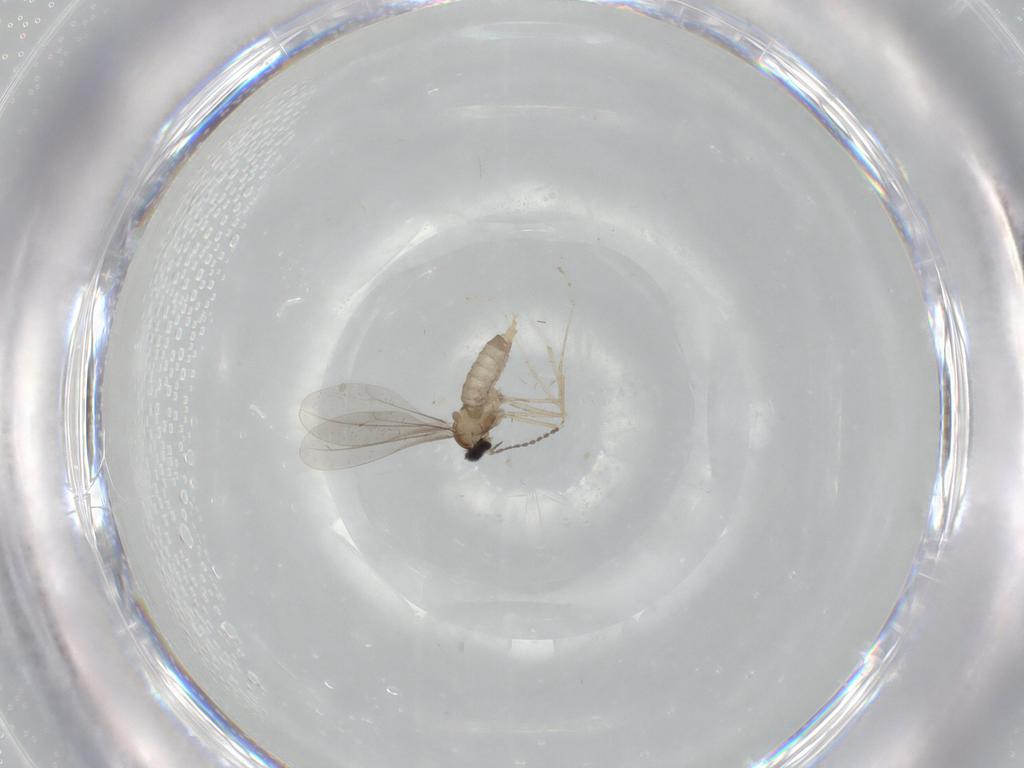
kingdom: Animalia
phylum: Arthropoda
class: Insecta
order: Diptera
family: Cecidomyiidae
